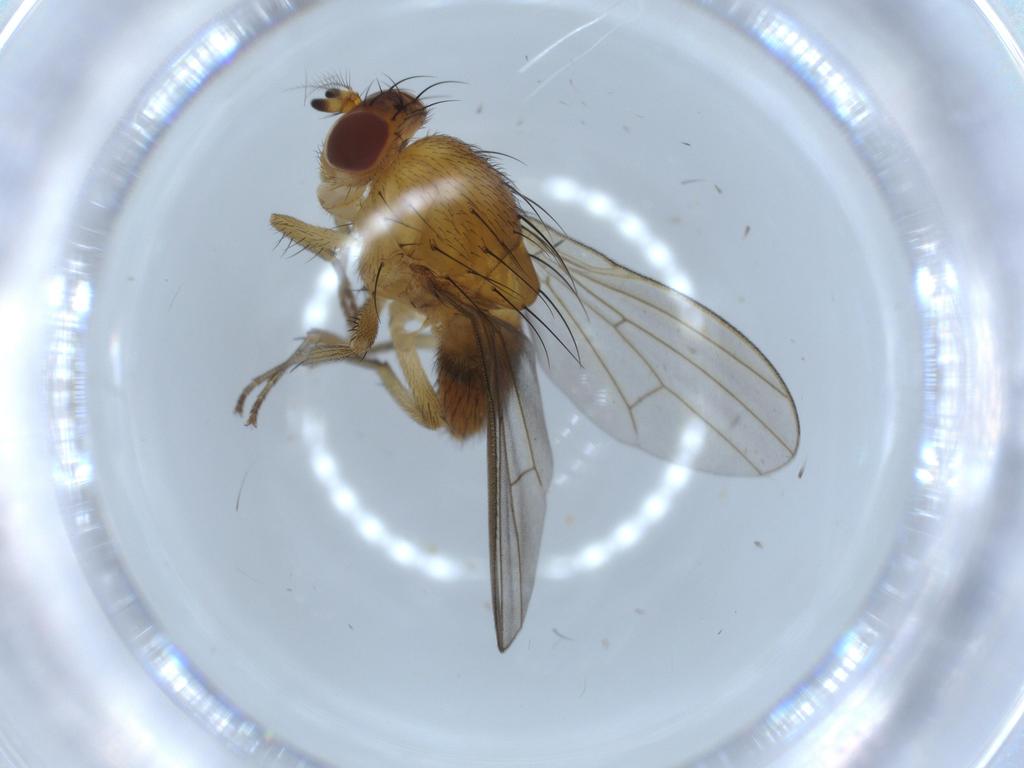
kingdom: Animalia
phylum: Arthropoda
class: Insecta
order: Diptera
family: Lauxaniidae
